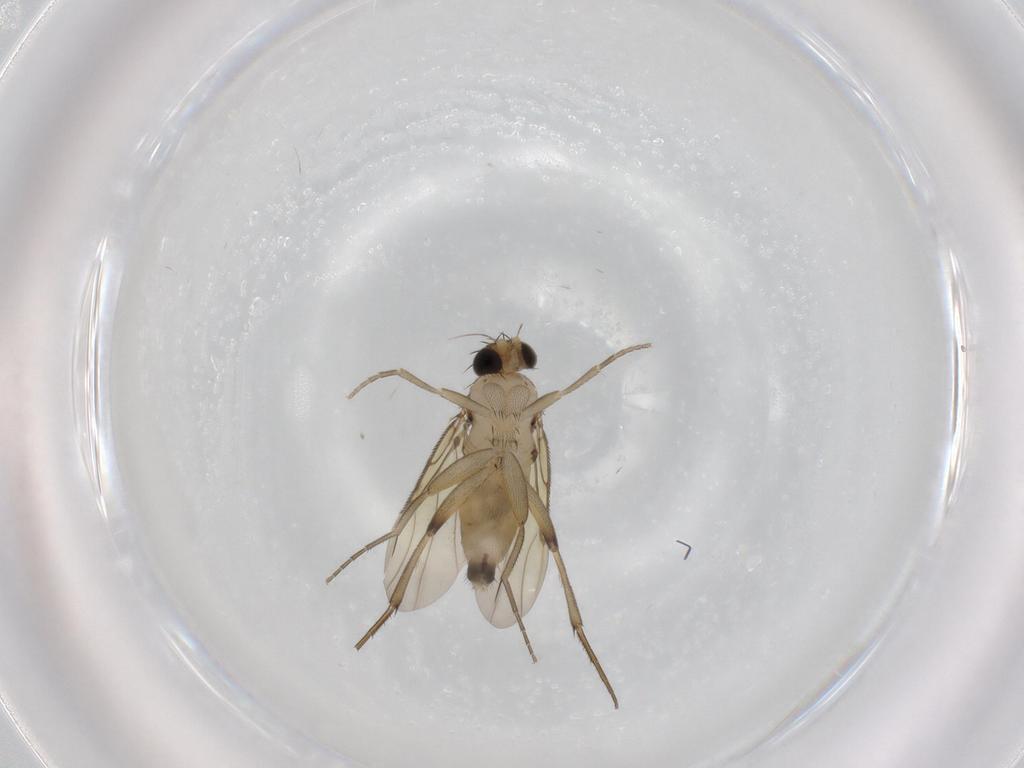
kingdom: Animalia
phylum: Arthropoda
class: Insecta
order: Diptera
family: Phoridae
